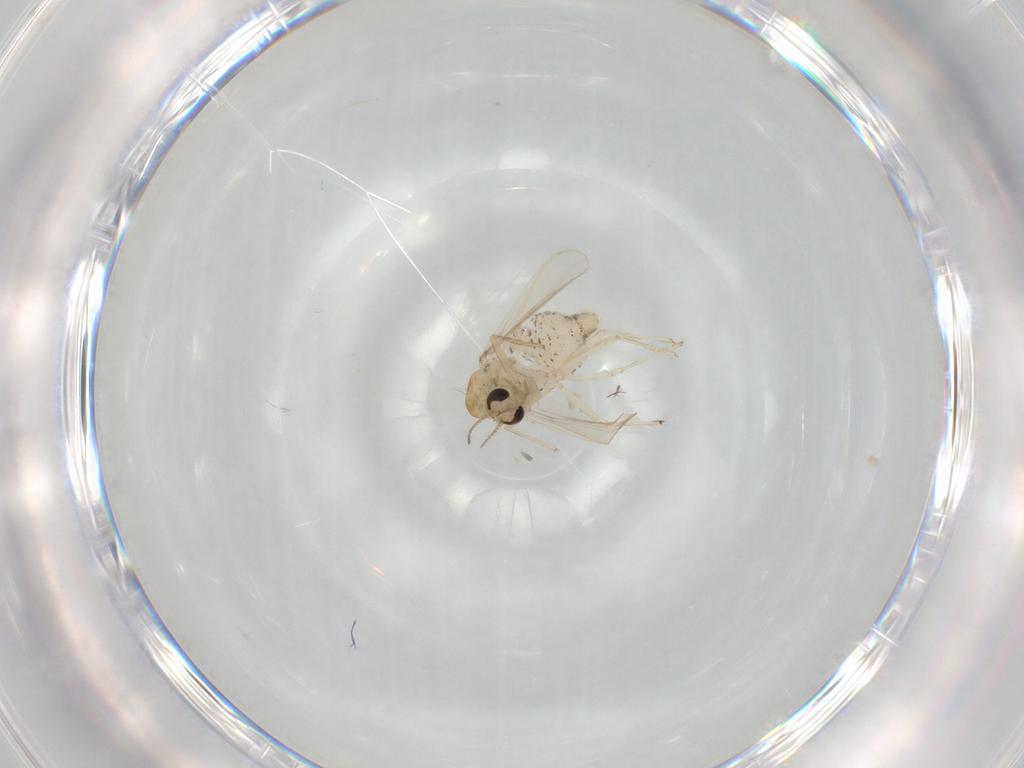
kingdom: Animalia
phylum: Arthropoda
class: Insecta
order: Diptera
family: Chironomidae
